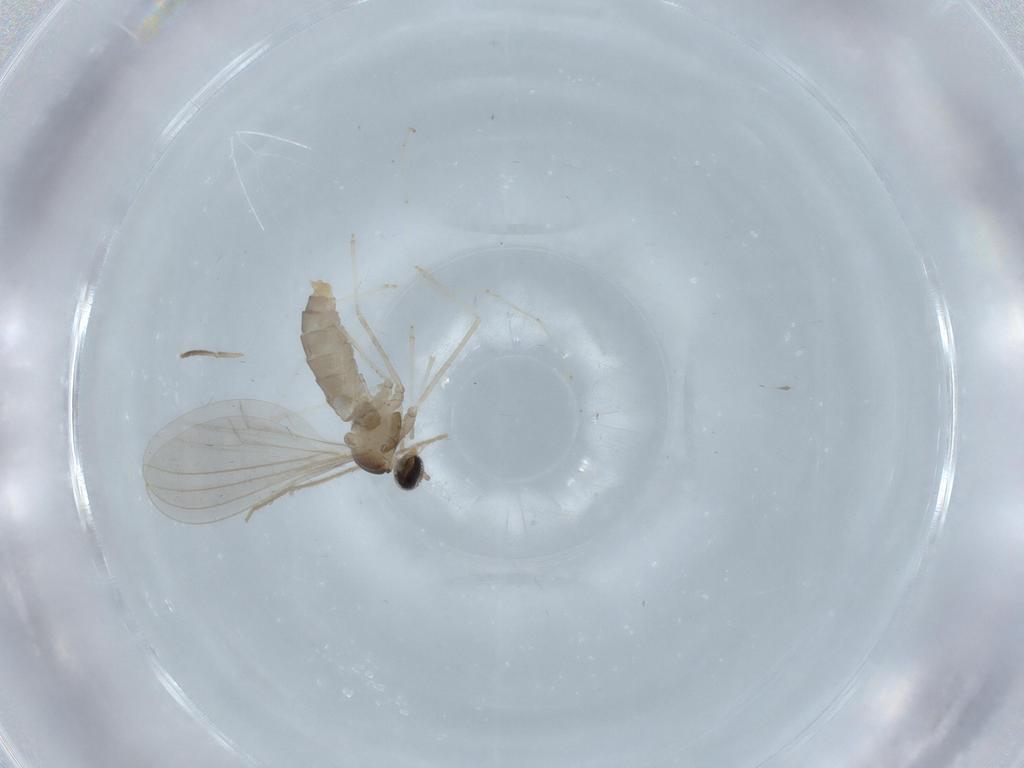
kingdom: Animalia
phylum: Arthropoda
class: Insecta
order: Diptera
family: Cecidomyiidae
